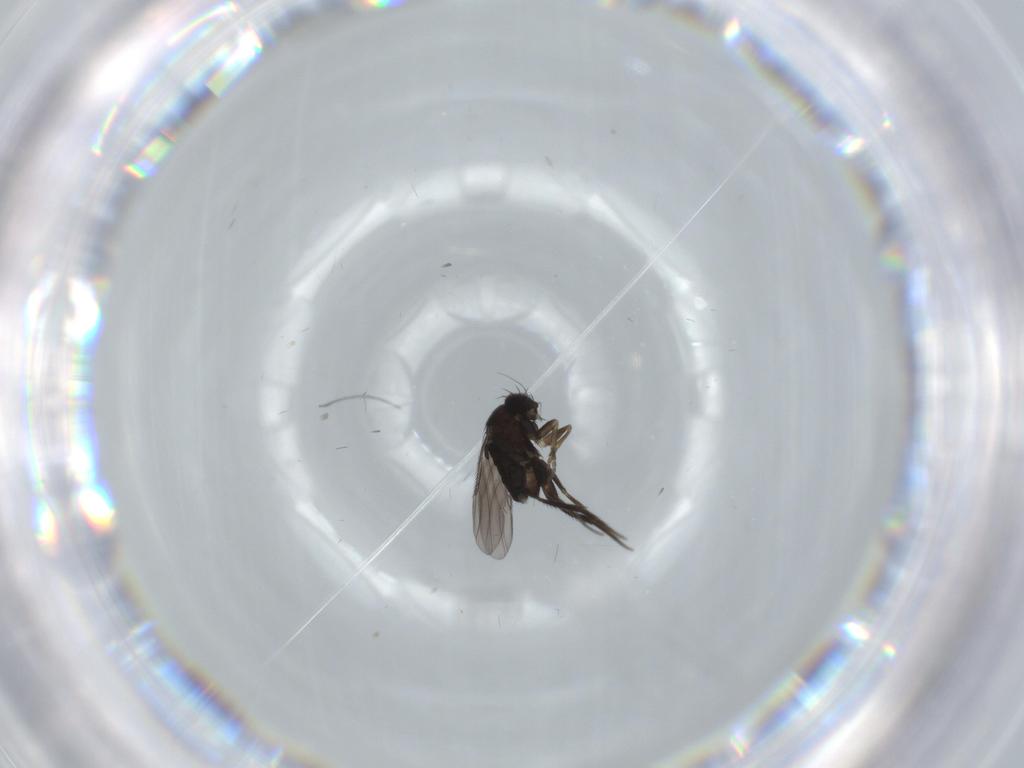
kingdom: Animalia
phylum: Arthropoda
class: Insecta
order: Diptera
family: Phoridae
